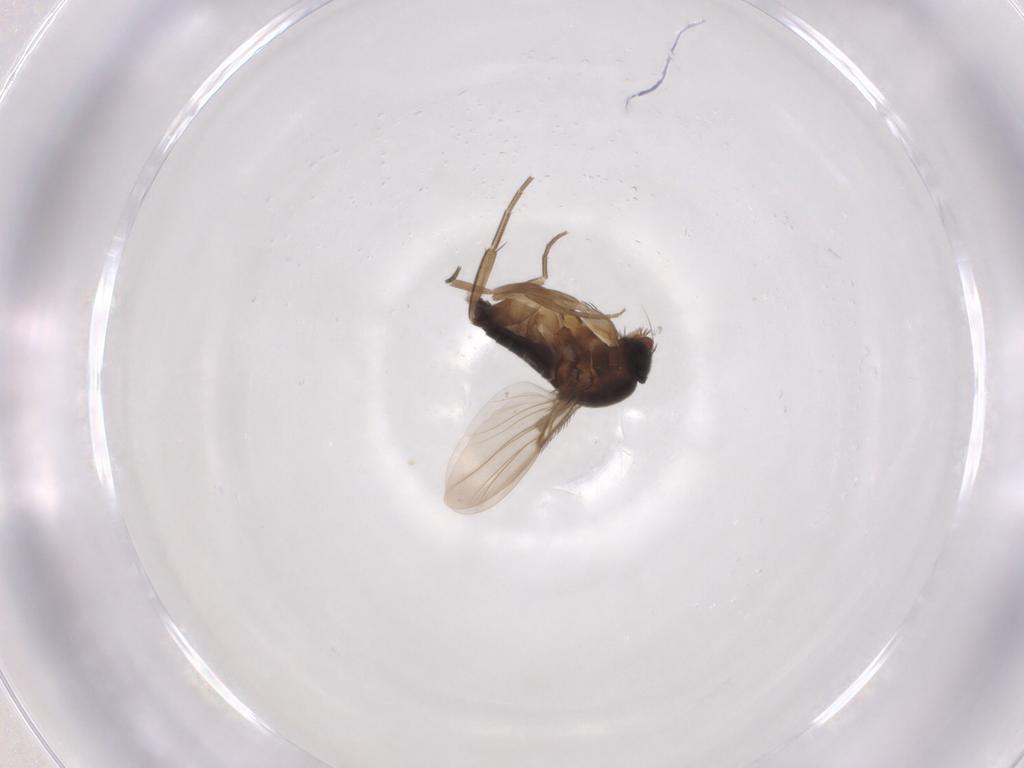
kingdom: Animalia
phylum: Arthropoda
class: Insecta
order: Diptera
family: Phoridae
